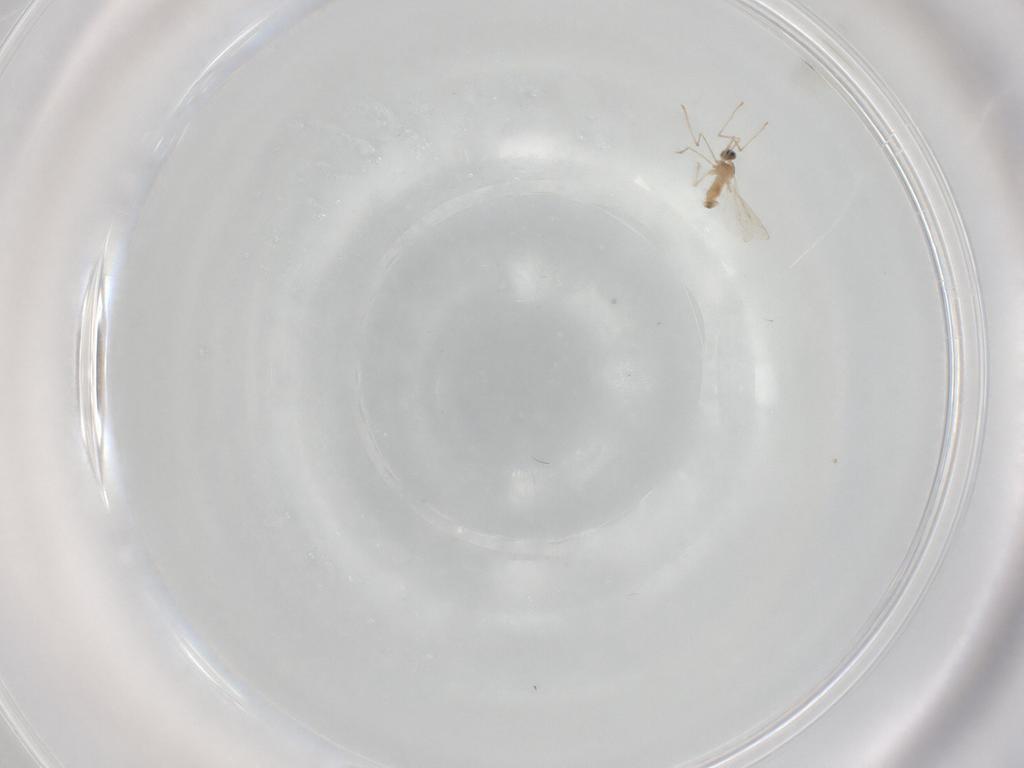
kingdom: Animalia
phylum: Arthropoda
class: Insecta
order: Diptera
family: Cecidomyiidae
